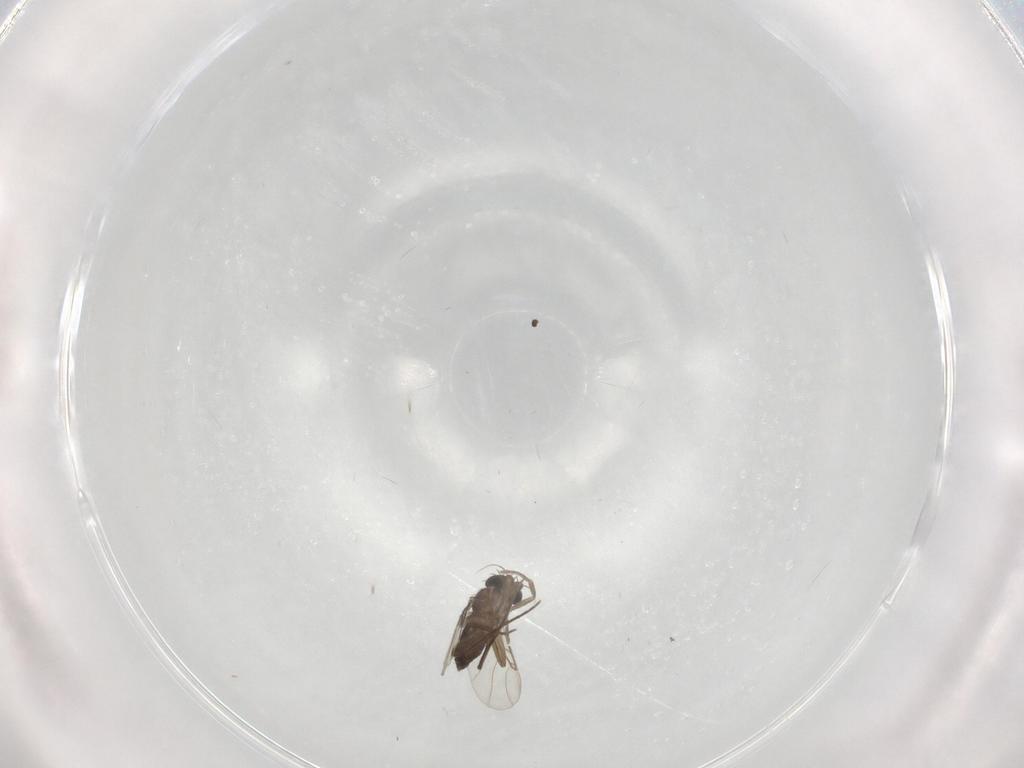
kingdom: Animalia
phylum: Arthropoda
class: Insecta
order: Diptera
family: Phoridae
